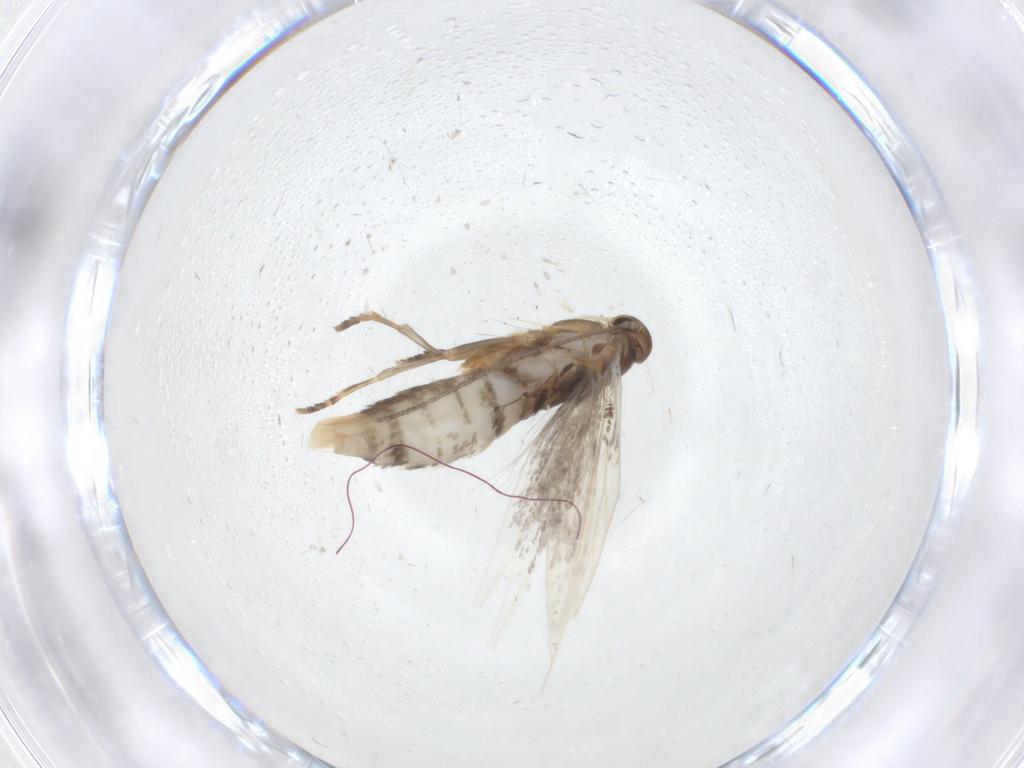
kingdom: Animalia
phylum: Arthropoda
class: Insecta
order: Lepidoptera
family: Elachistidae
